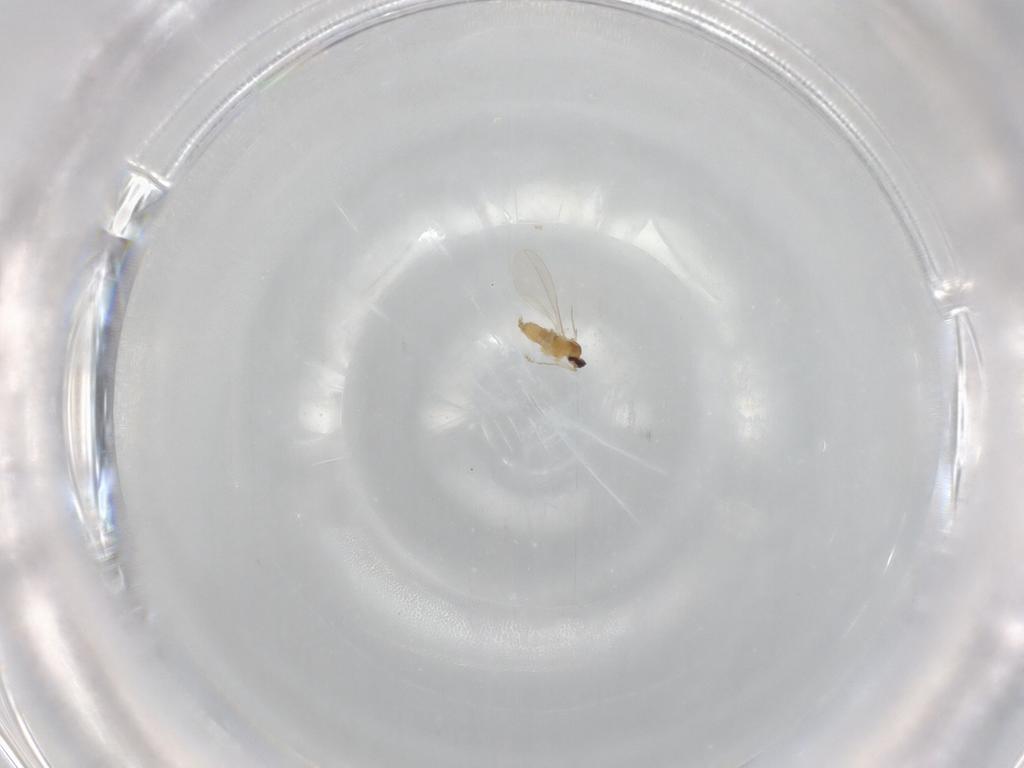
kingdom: Animalia
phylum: Arthropoda
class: Insecta
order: Diptera
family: Cecidomyiidae
